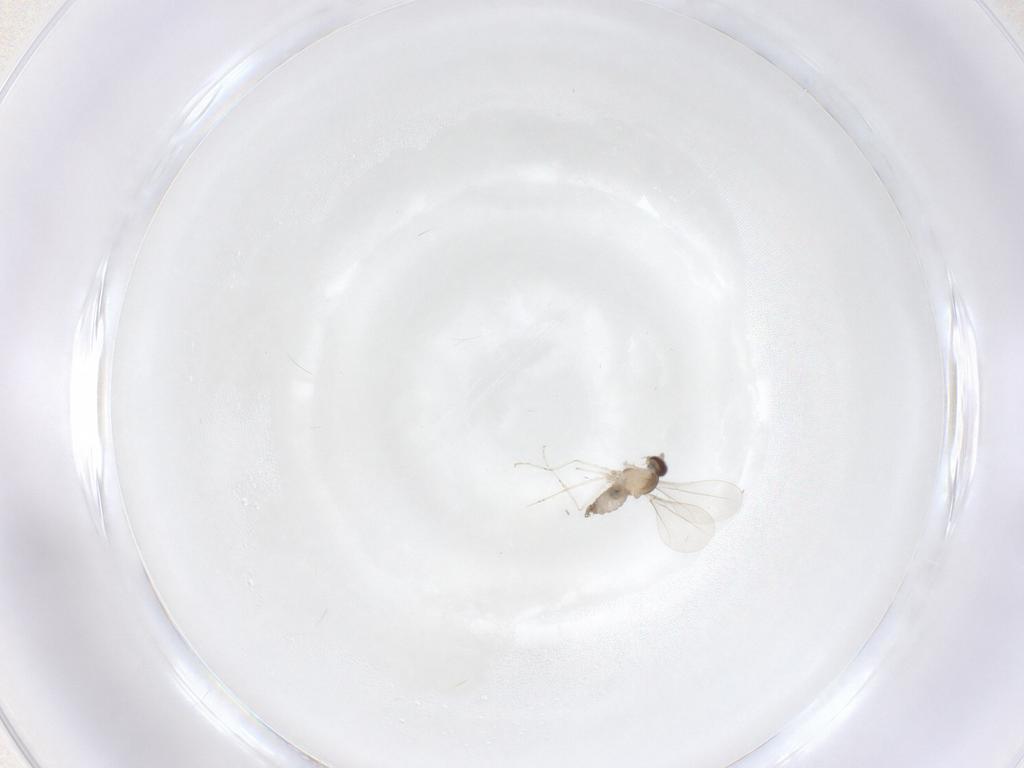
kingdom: Animalia
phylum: Arthropoda
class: Insecta
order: Diptera
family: Cecidomyiidae
